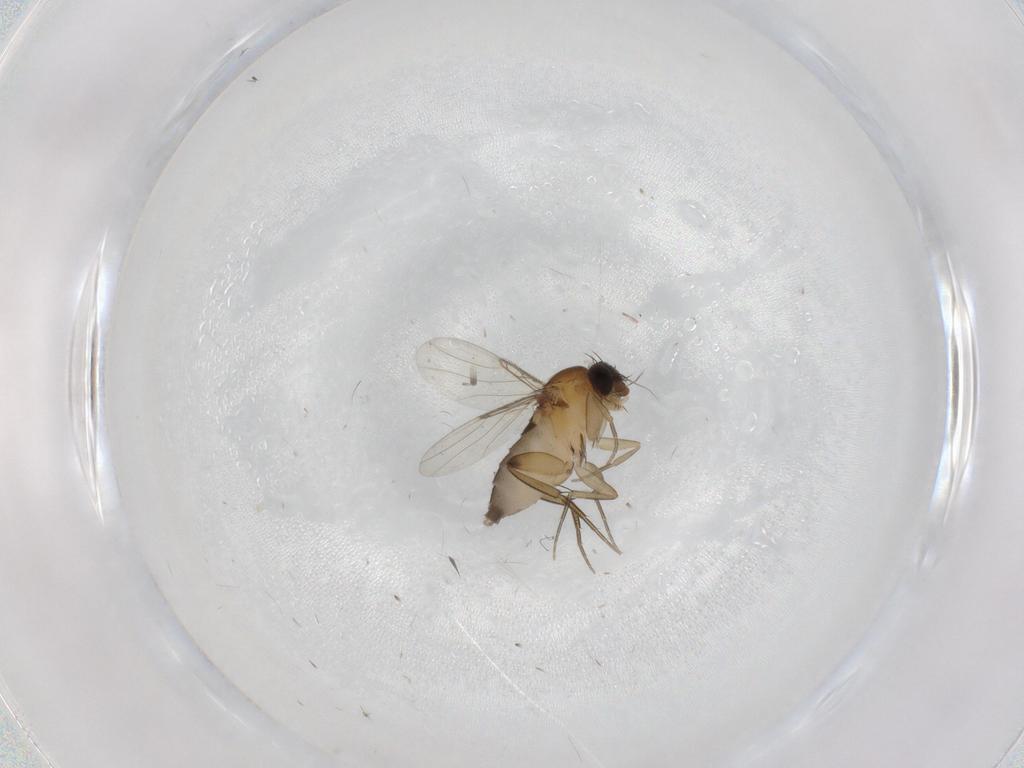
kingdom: Animalia
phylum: Arthropoda
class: Insecta
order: Diptera
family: Phoridae
